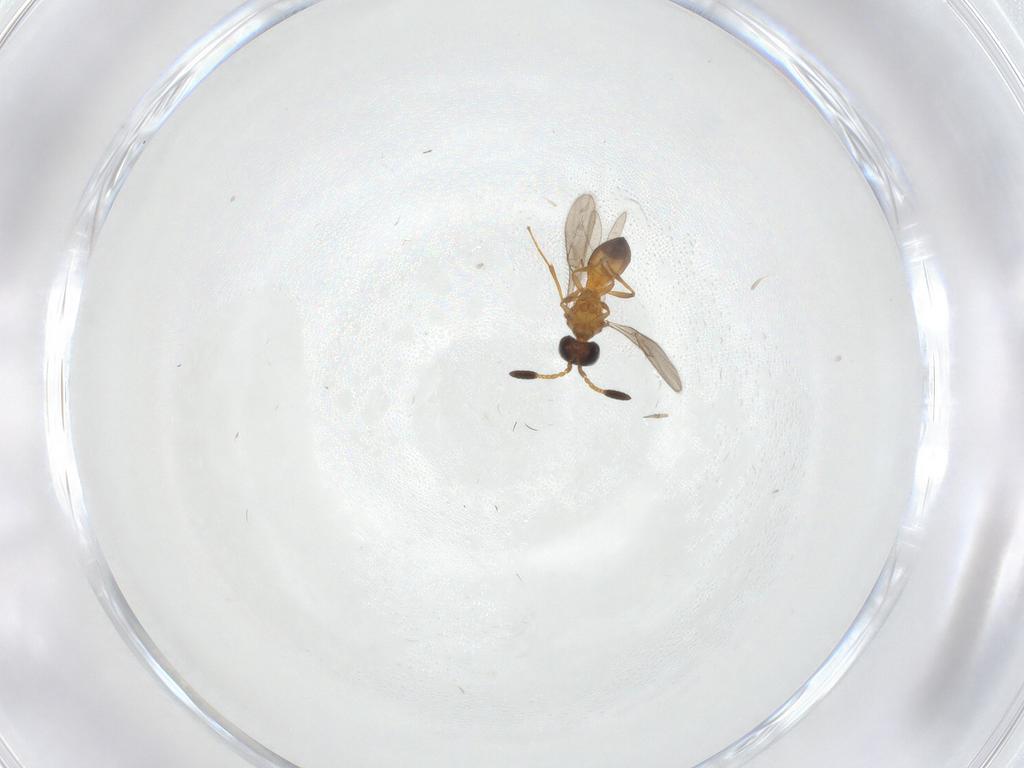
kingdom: Animalia
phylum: Arthropoda
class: Insecta
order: Hymenoptera
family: Scelionidae
